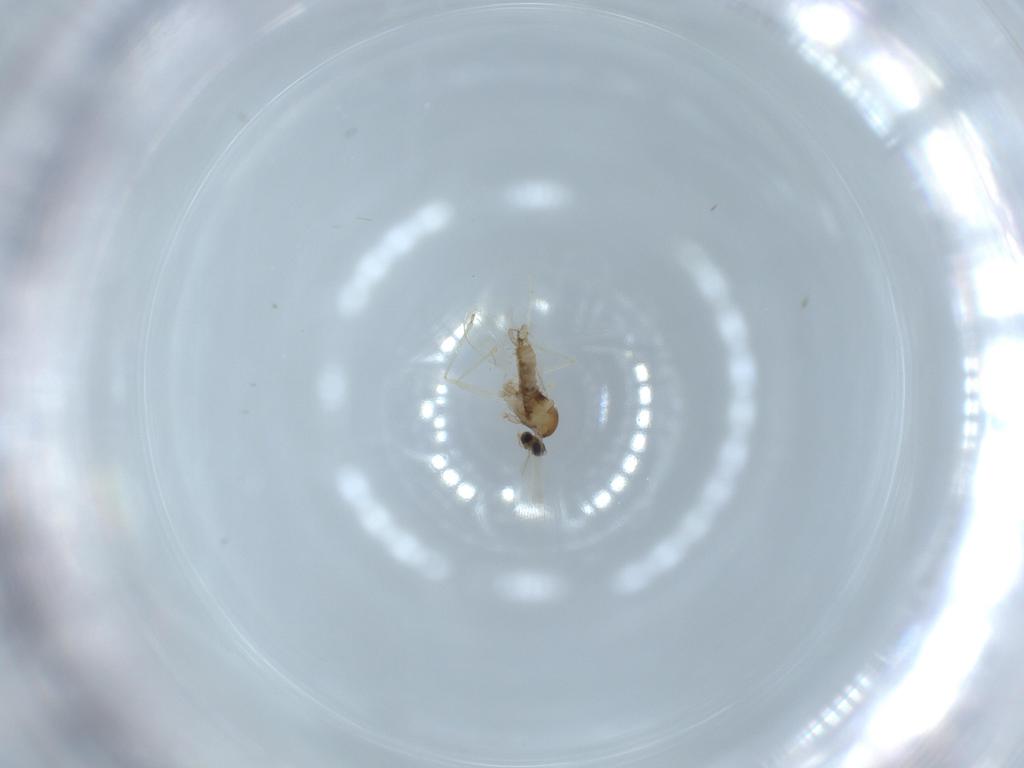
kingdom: Animalia
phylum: Arthropoda
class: Insecta
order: Diptera
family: Cecidomyiidae
